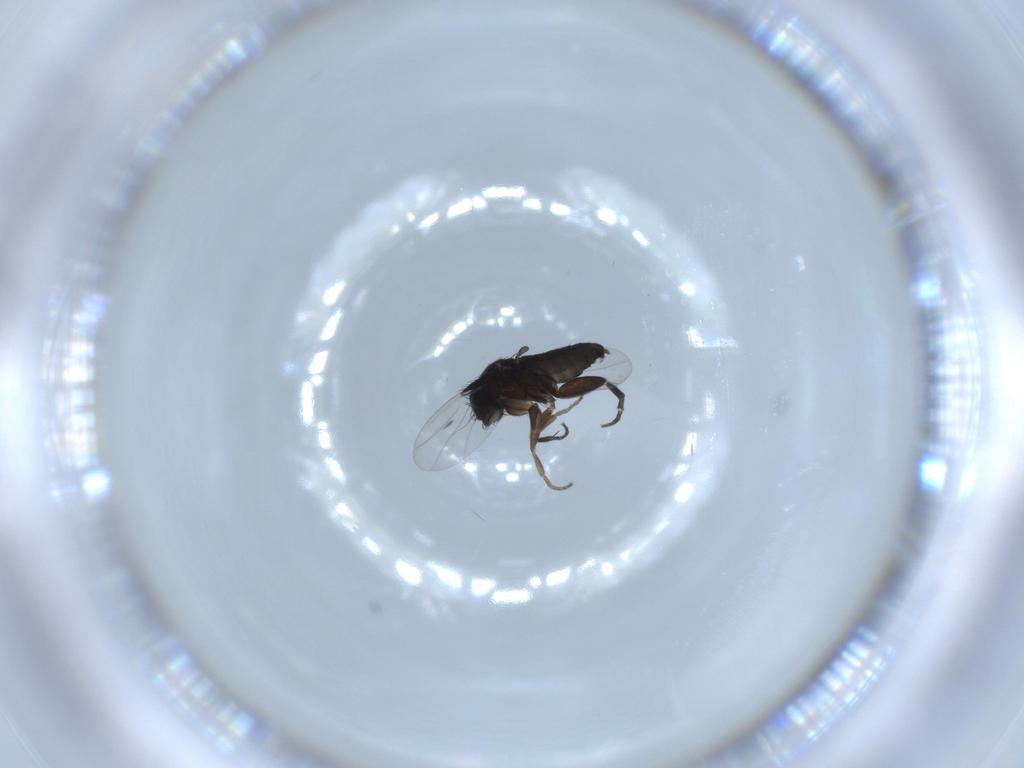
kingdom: Animalia
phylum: Arthropoda
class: Insecta
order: Diptera
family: Chironomidae
